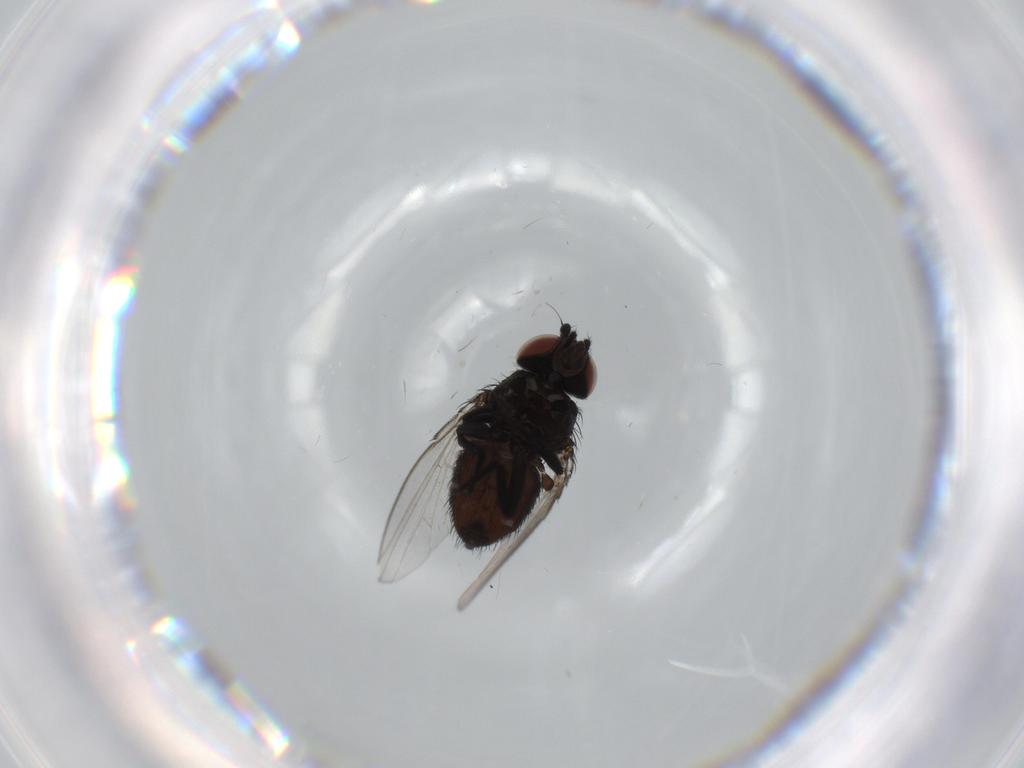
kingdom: Animalia
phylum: Arthropoda
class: Insecta
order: Diptera
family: Milichiidae
